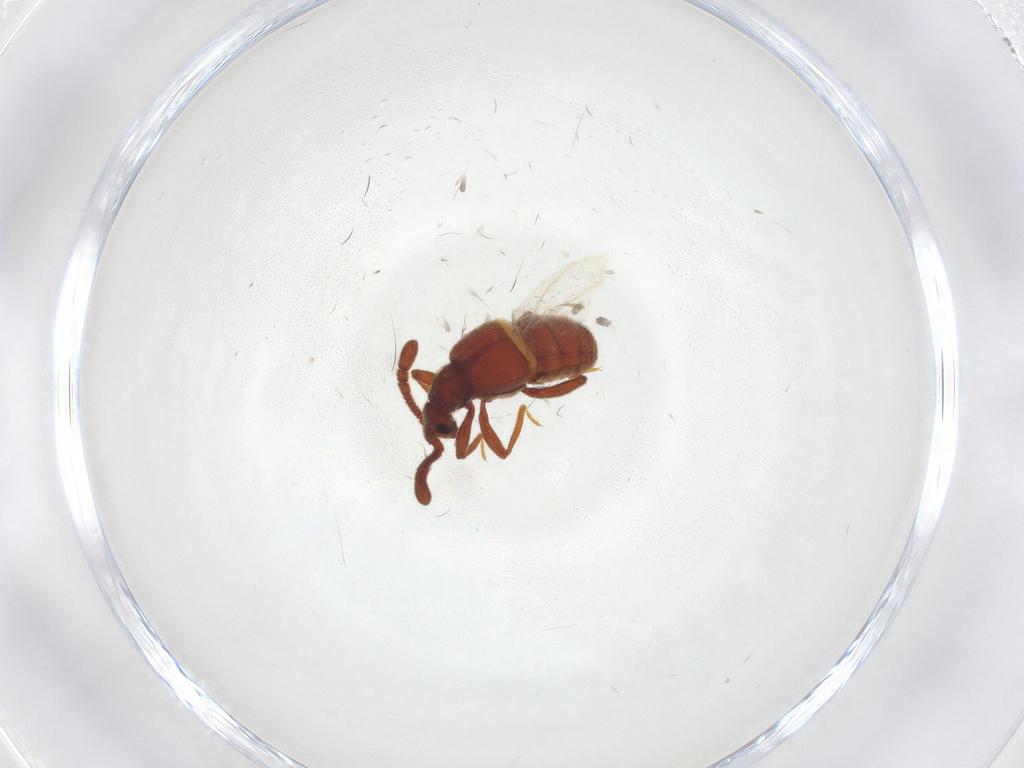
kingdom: Animalia
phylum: Arthropoda
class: Insecta
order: Coleoptera
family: Staphylinidae
